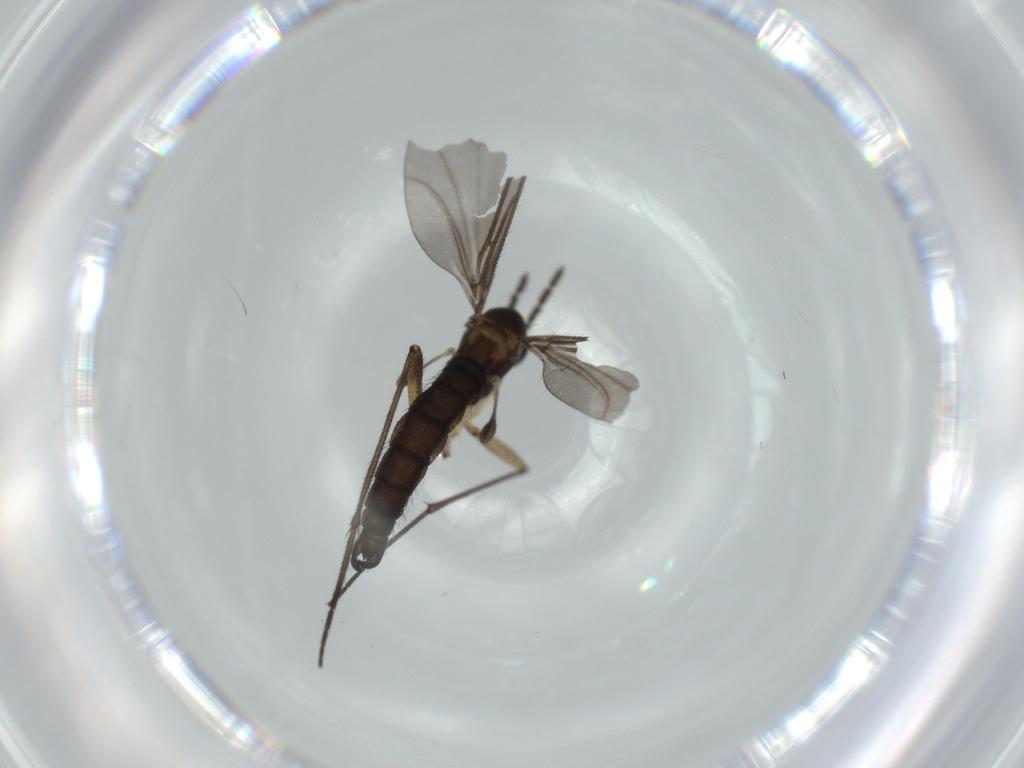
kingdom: Animalia
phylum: Arthropoda
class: Insecta
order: Diptera
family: Sciaridae
